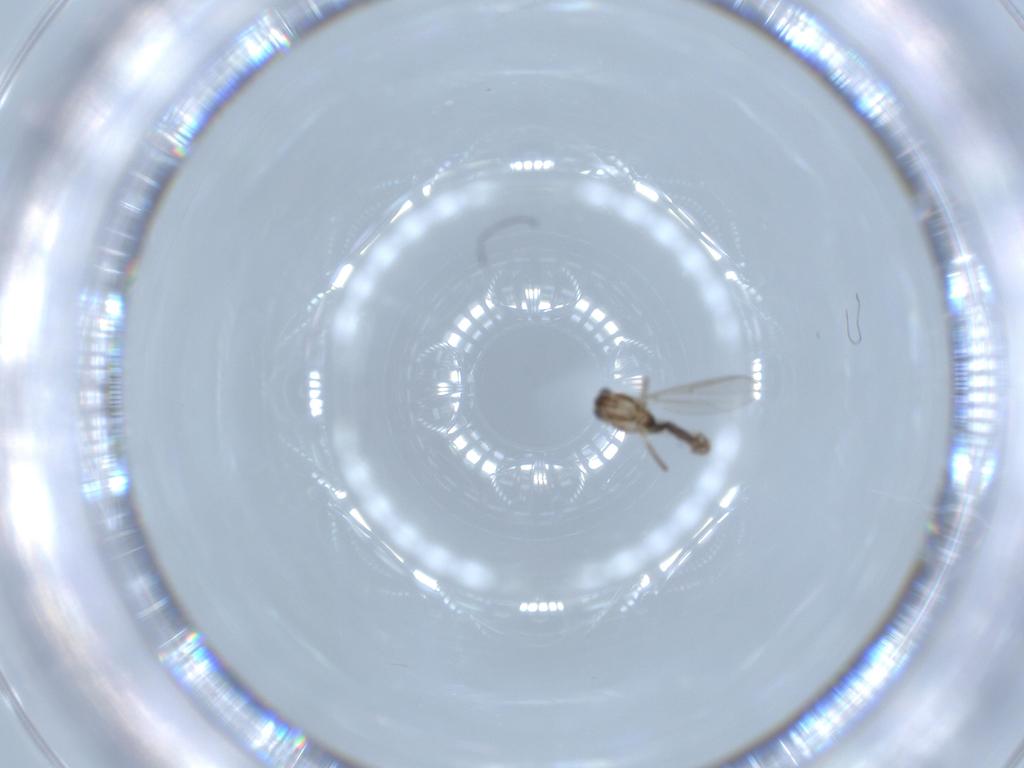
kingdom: Animalia
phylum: Arthropoda
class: Insecta
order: Diptera
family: Chironomidae
